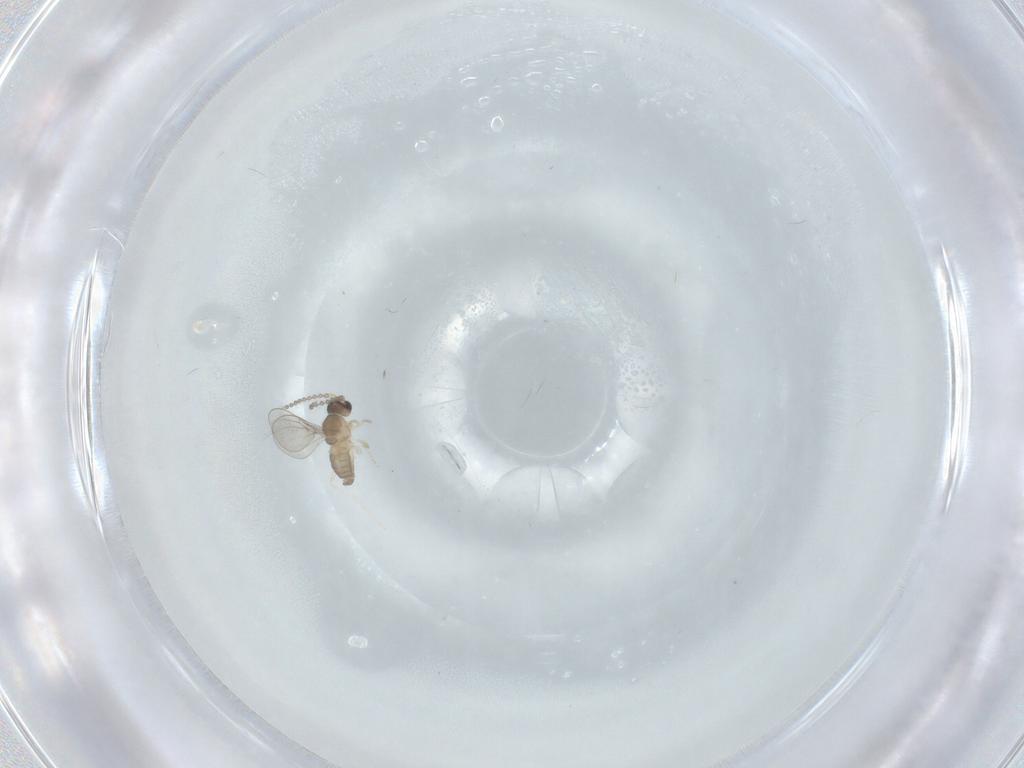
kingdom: Animalia
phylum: Arthropoda
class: Insecta
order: Diptera
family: Cecidomyiidae
